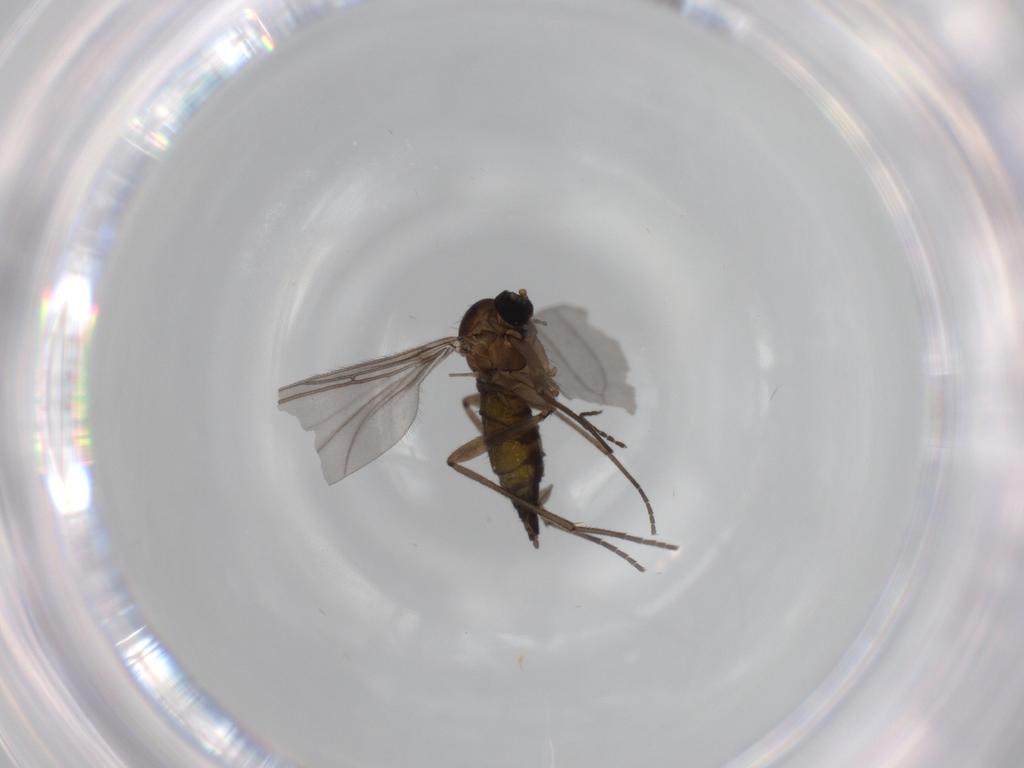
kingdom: Animalia
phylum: Arthropoda
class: Insecta
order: Diptera
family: Sciaridae
